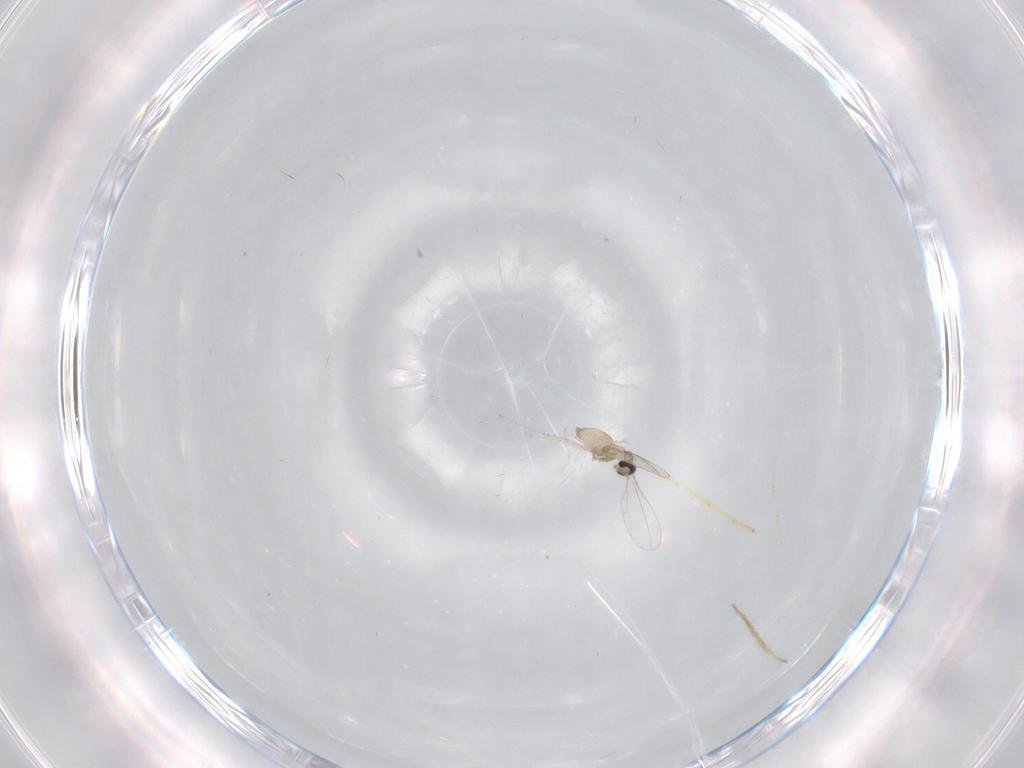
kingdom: Animalia
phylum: Arthropoda
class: Insecta
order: Diptera
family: Cecidomyiidae
